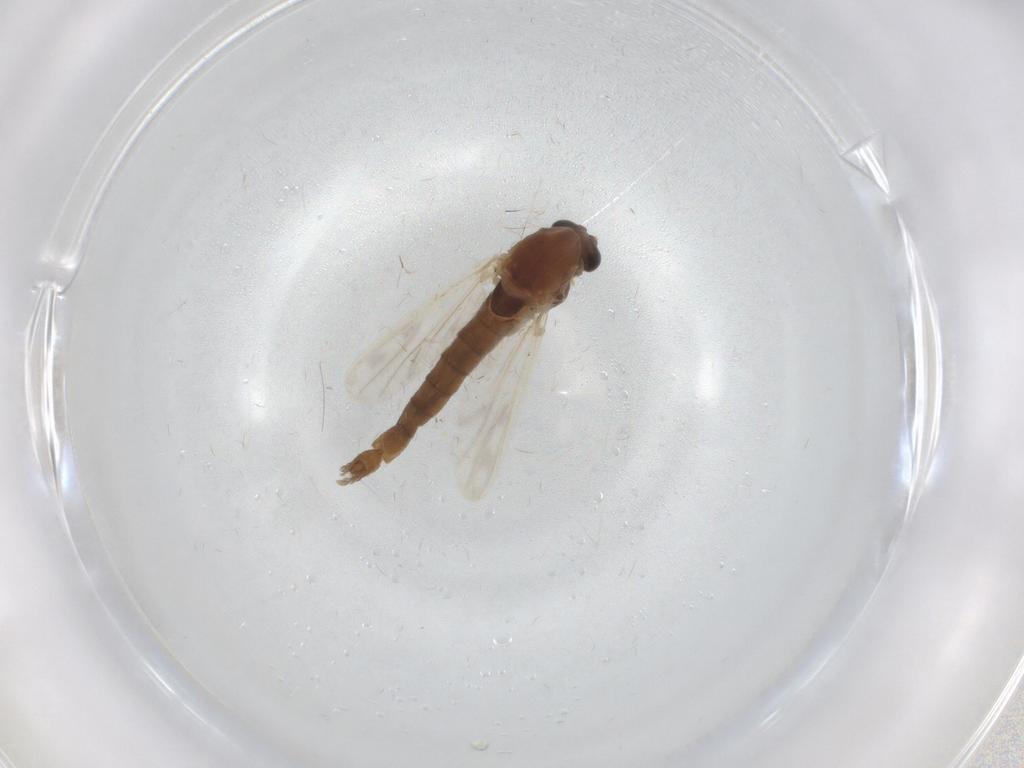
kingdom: Animalia
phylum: Arthropoda
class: Insecta
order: Diptera
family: Chironomidae
